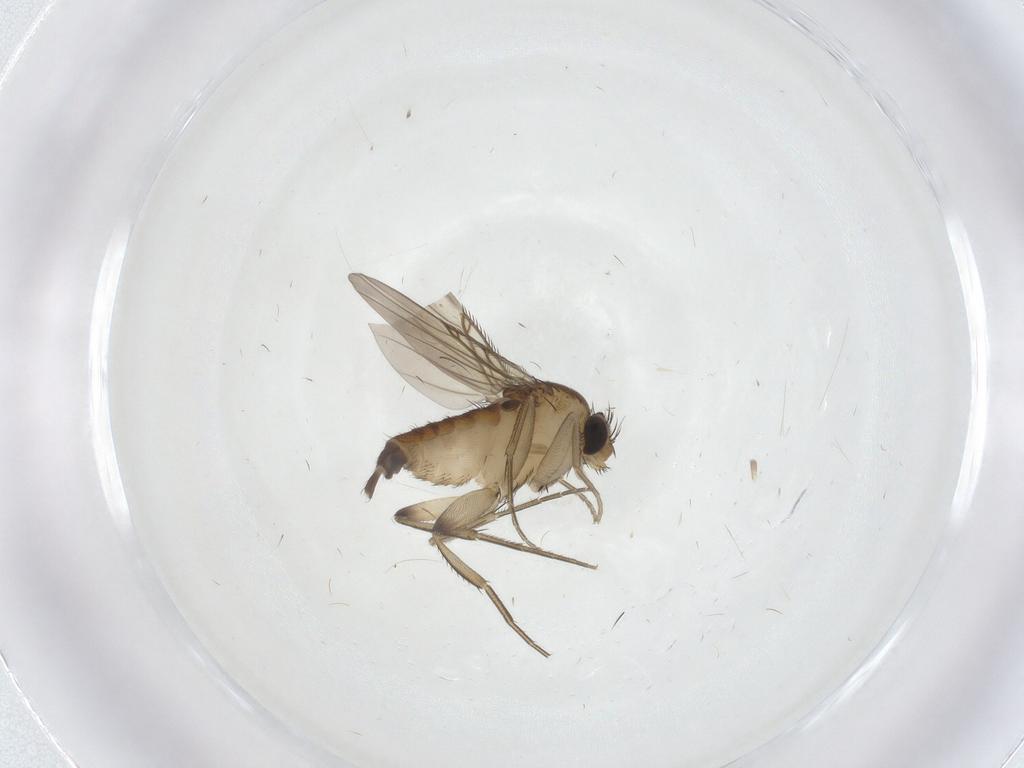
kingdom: Animalia
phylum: Arthropoda
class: Insecta
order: Diptera
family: Phoridae
